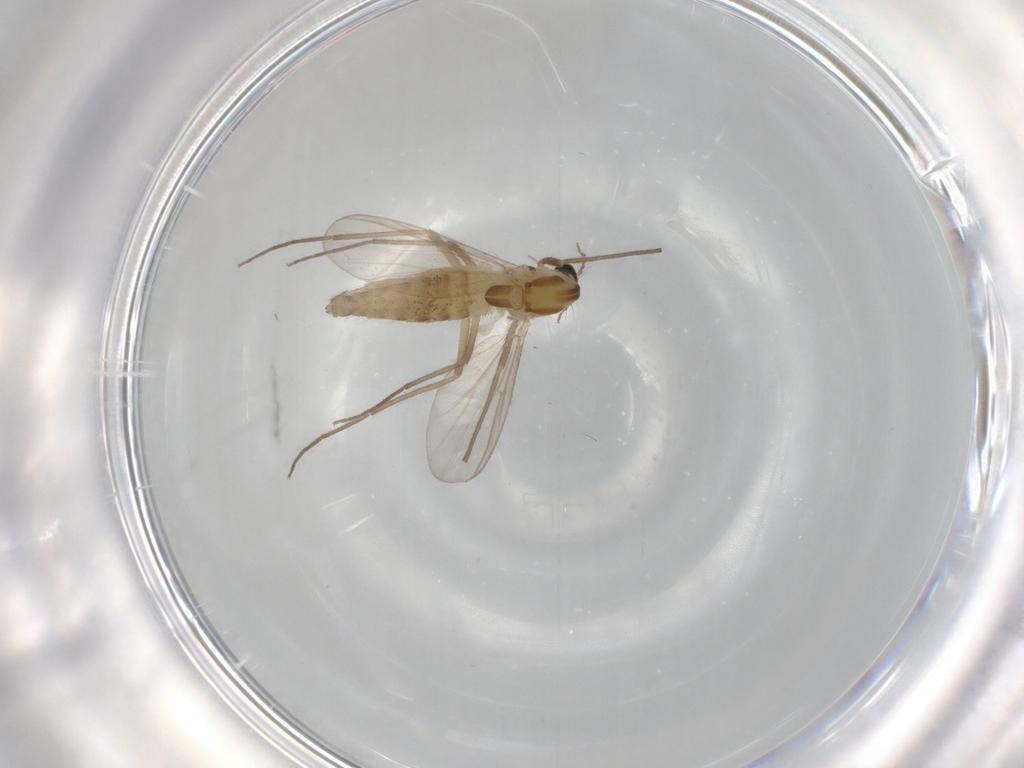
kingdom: Animalia
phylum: Arthropoda
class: Insecta
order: Diptera
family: Chironomidae
